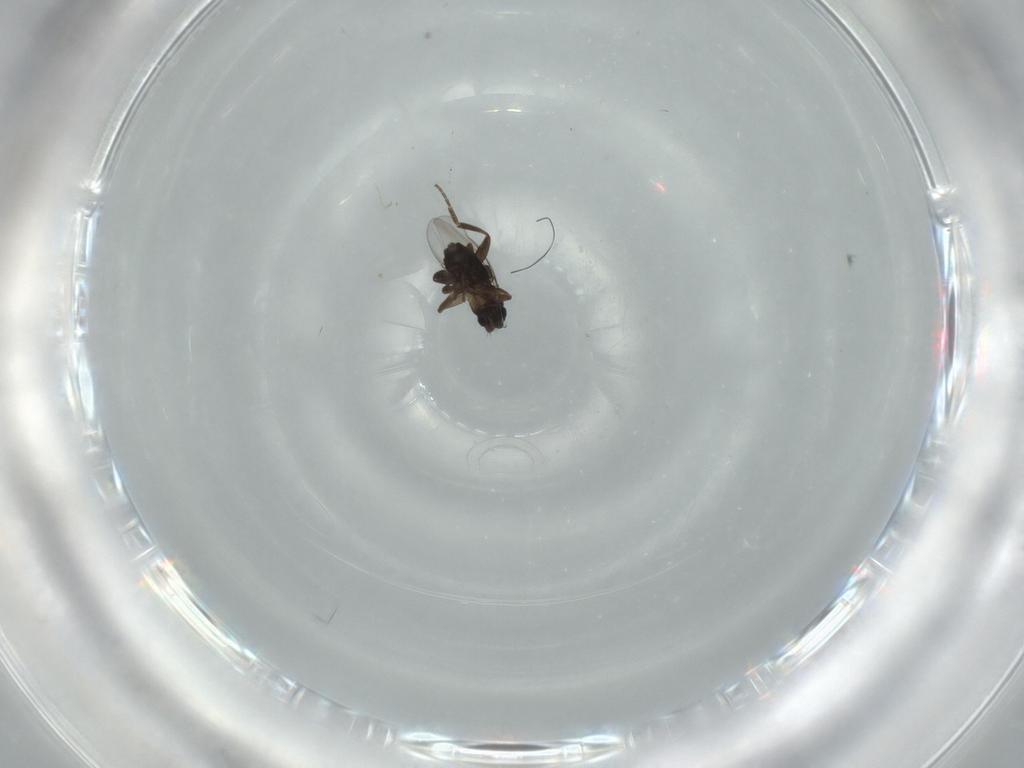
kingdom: Animalia
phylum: Arthropoda
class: Insecta
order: Diptera
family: Phoridae
